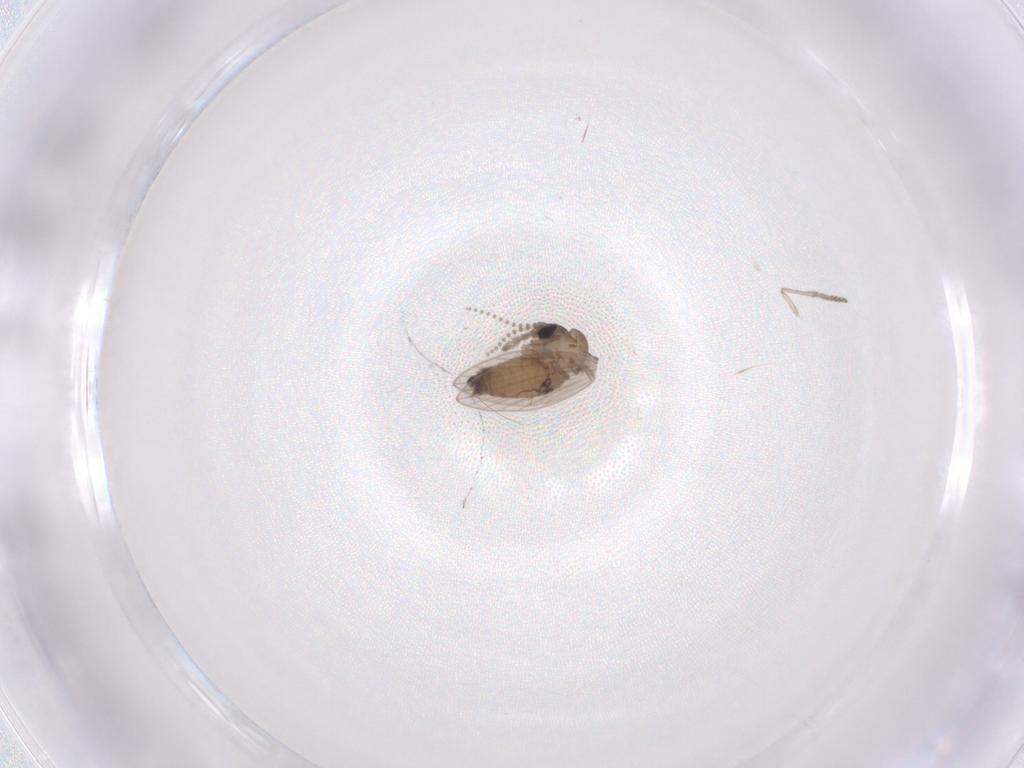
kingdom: Animalia
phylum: Arthropoda
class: Insecta
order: Diptera
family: Psychodidae
